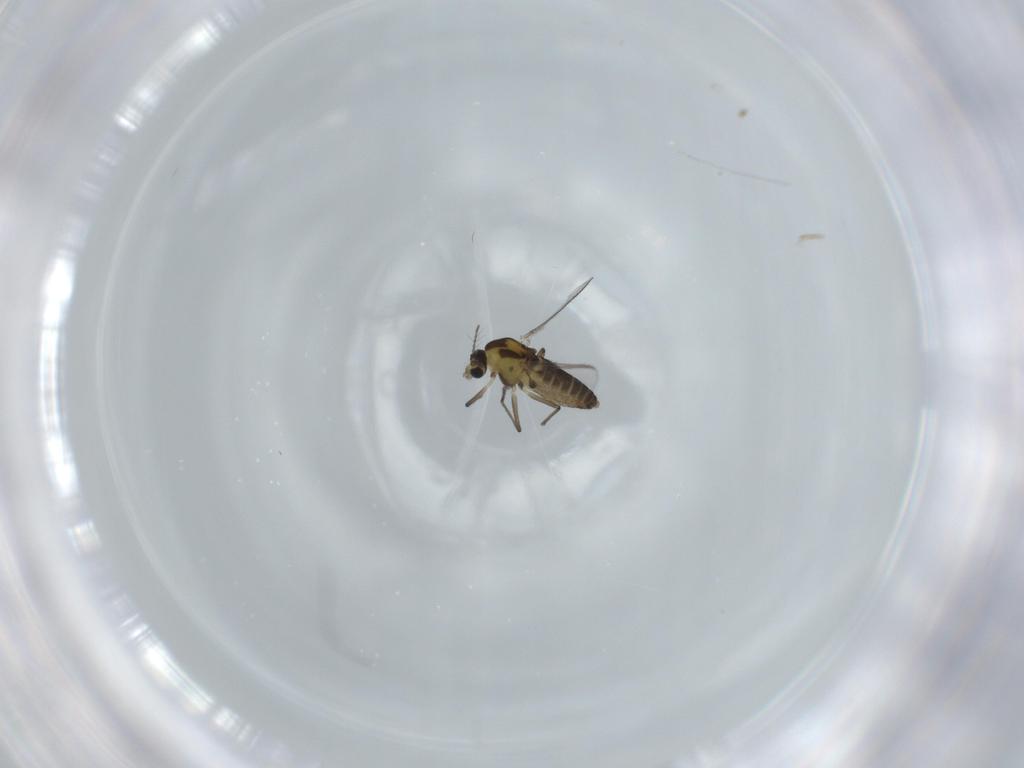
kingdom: Animalia
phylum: Arthropoda
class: Insecta
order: Diptera
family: Chironomidae
